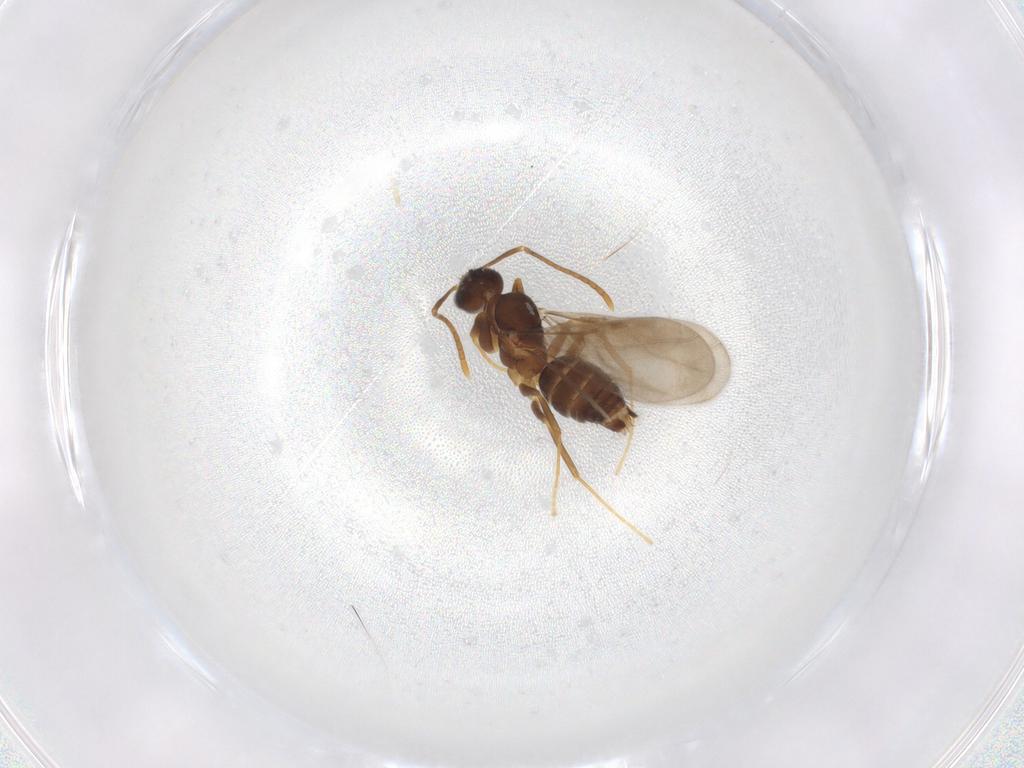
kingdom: Animalia
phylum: Arthropoda
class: Insecta
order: Hymenoptera
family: Formicidae
